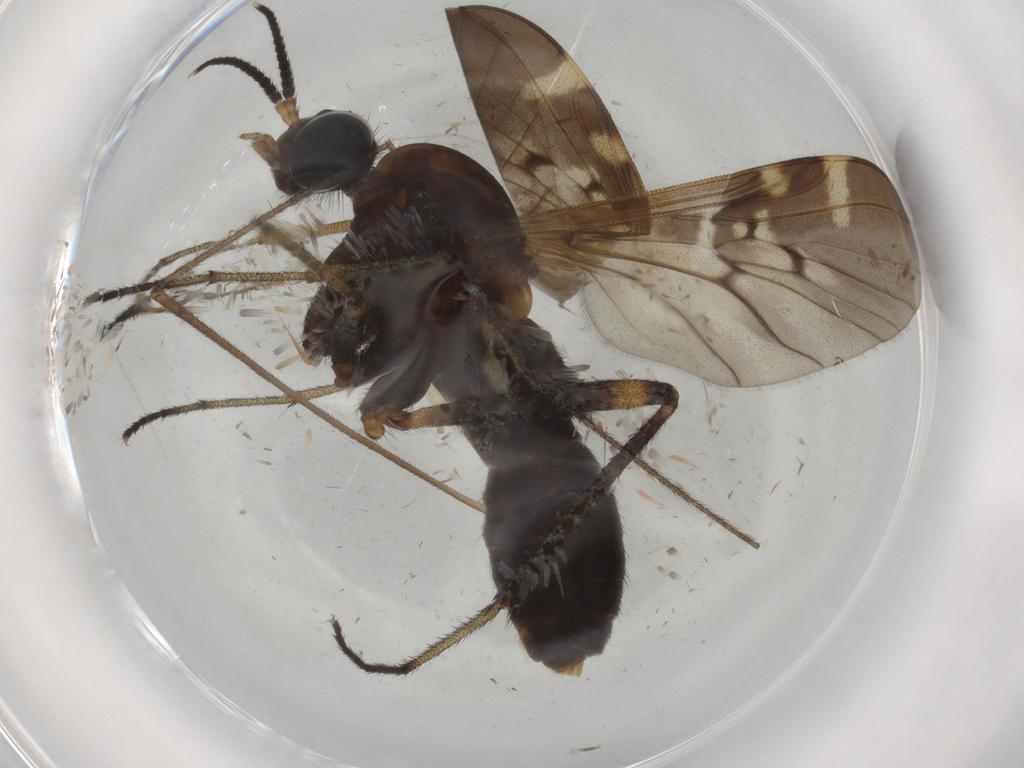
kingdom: Animalia
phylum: Arthropoda
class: Insecta
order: Diptera
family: Sciaridae
